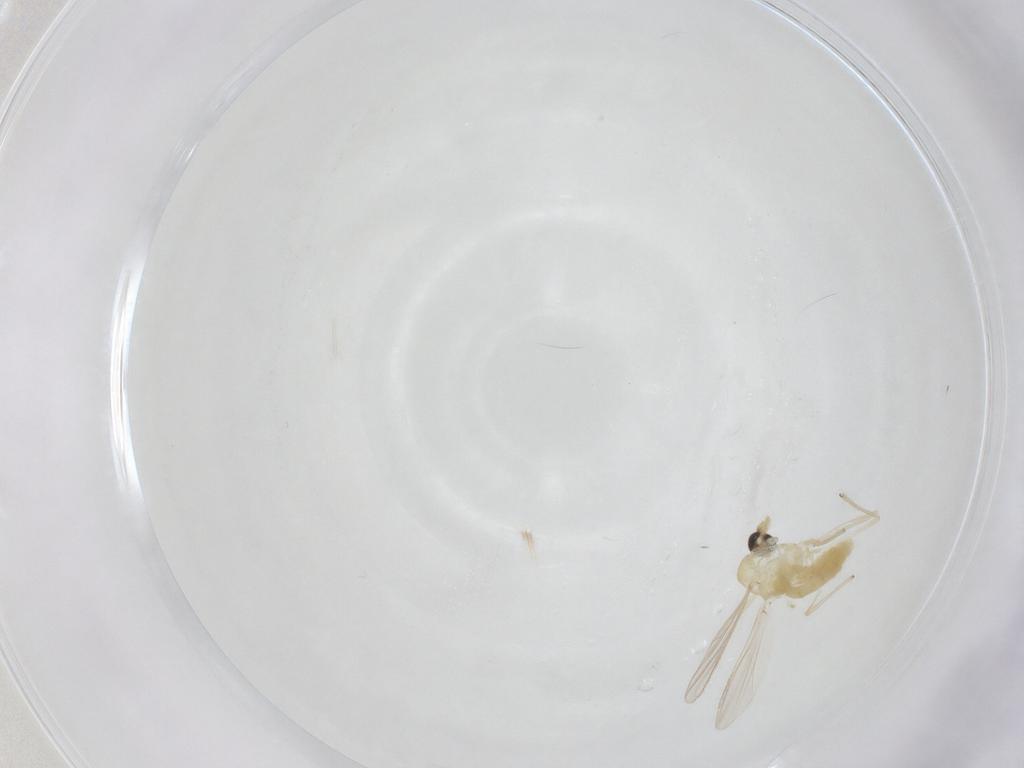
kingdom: Animalia
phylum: Arthropoda
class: Insecta
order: Diptera
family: Chironomidae
